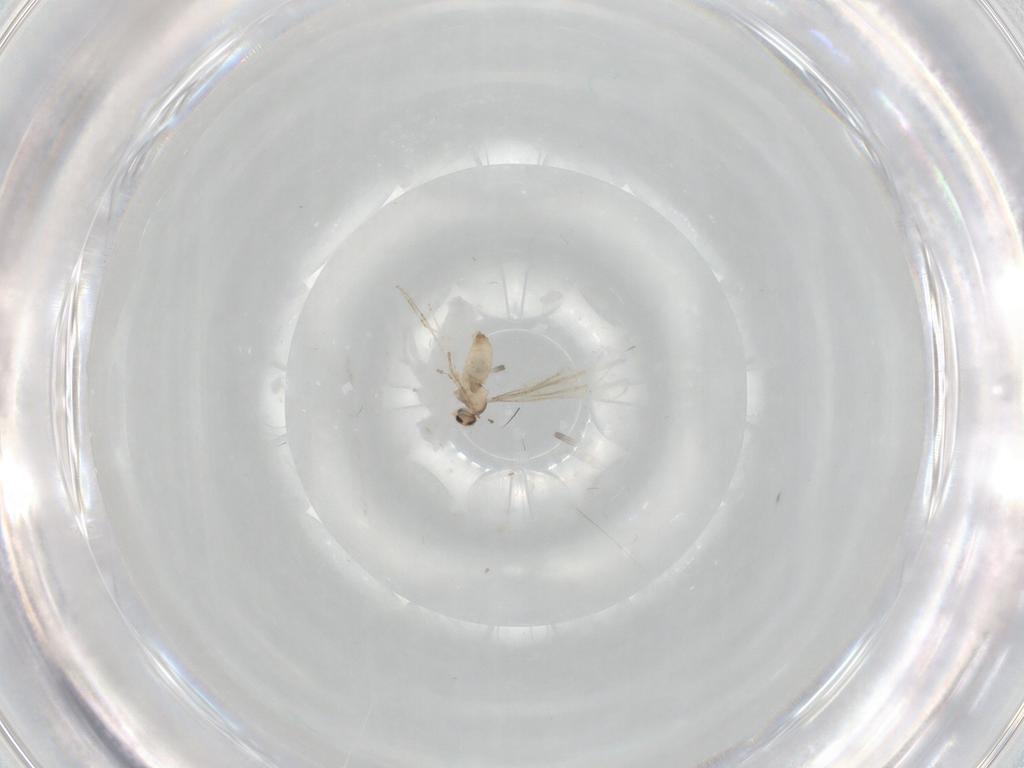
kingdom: Animalia
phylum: Arthropoda
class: Insecta
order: Diptera
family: Cecidomyiidae
